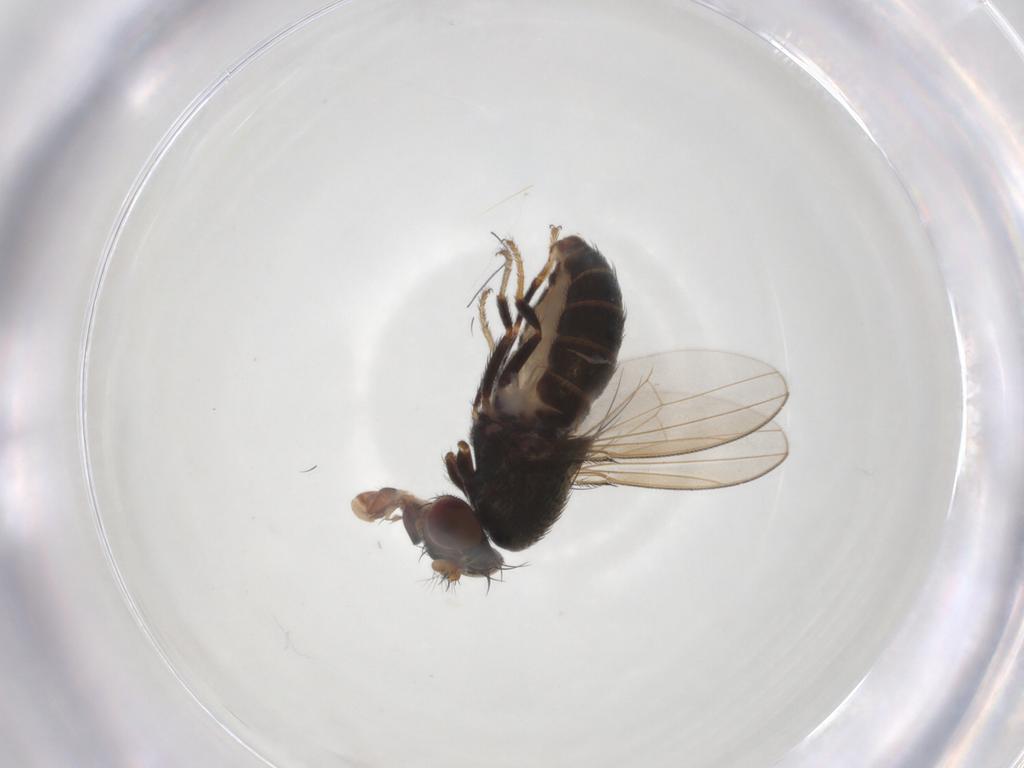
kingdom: Animalia
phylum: Arthropoda
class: Insecta
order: Diptera
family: Ephydridae
